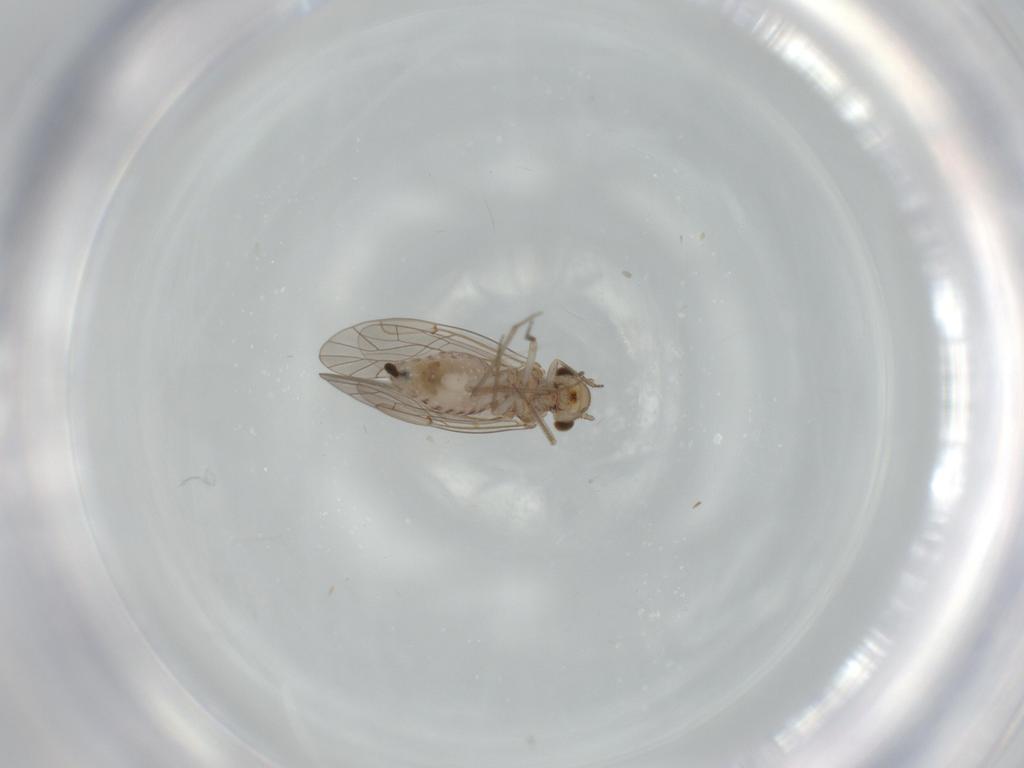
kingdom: Animalia
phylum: Arthropoda
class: Insecta
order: Psocodea
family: Lachesillidae
